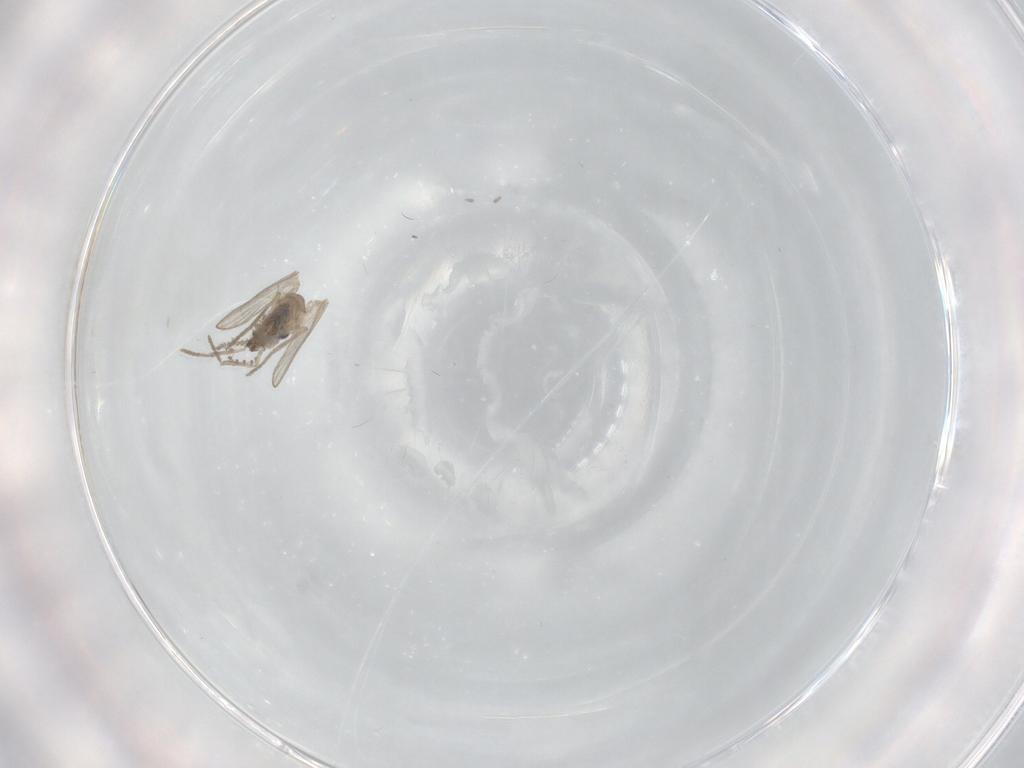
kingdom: Animalia
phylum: Arthropoda
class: Insecta
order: Diptera
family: Psychodidae
